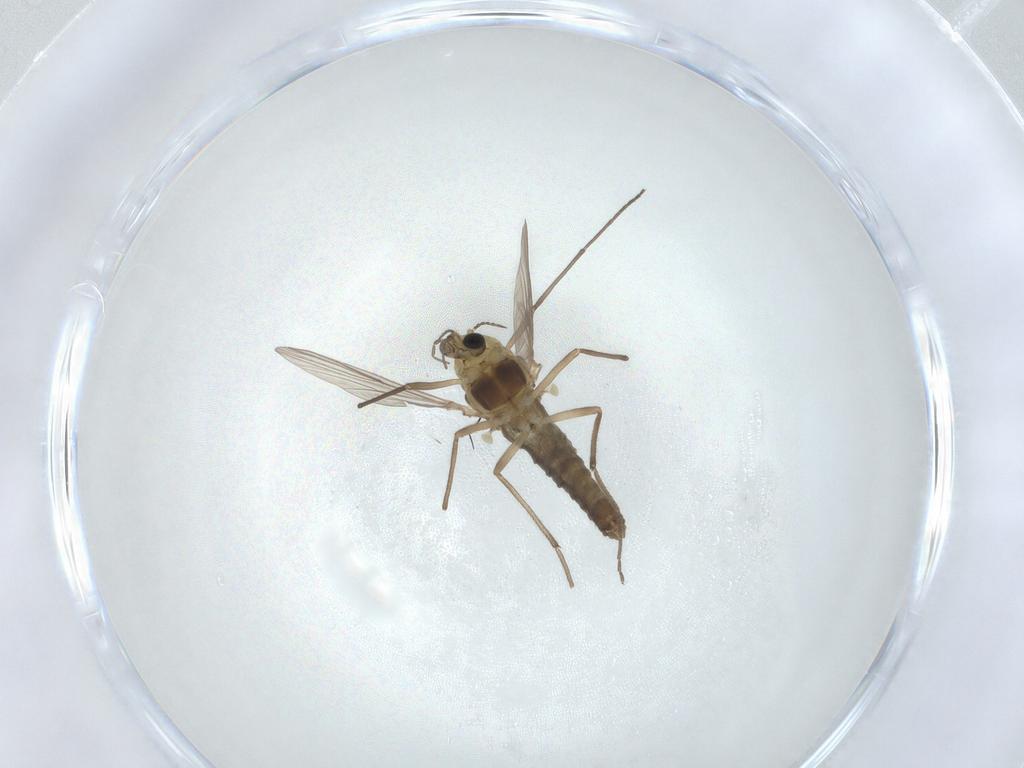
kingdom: Animalia
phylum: Arthropoda
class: Insecta
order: Diptera
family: Chironomidae
